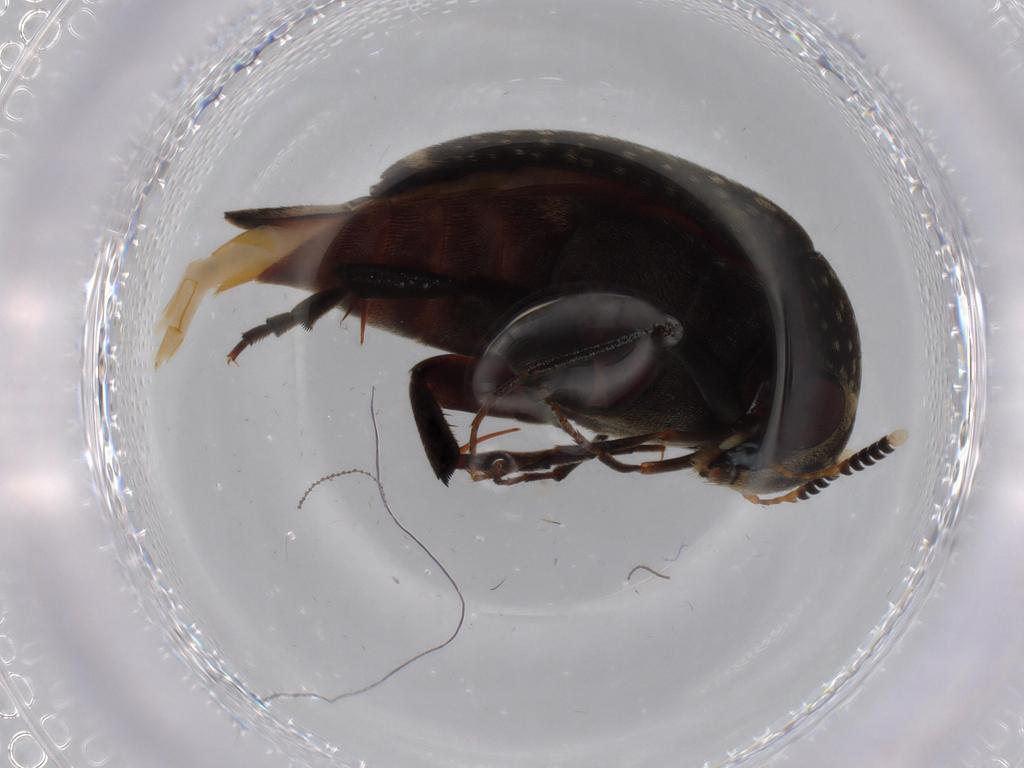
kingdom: Animalia
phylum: Arthropoda
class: Insecta
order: Coleoptera
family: Mordellidae
